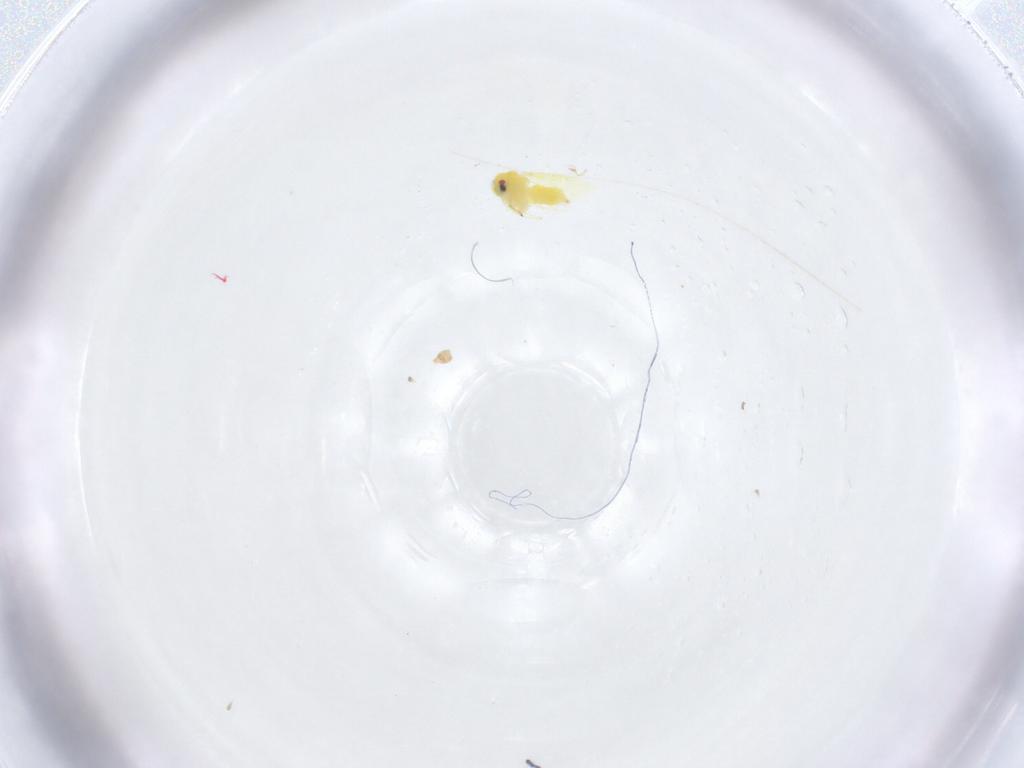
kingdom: Animalia
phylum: Arthropoda
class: Insecta
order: Hemiptera
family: Aleyrodidae
